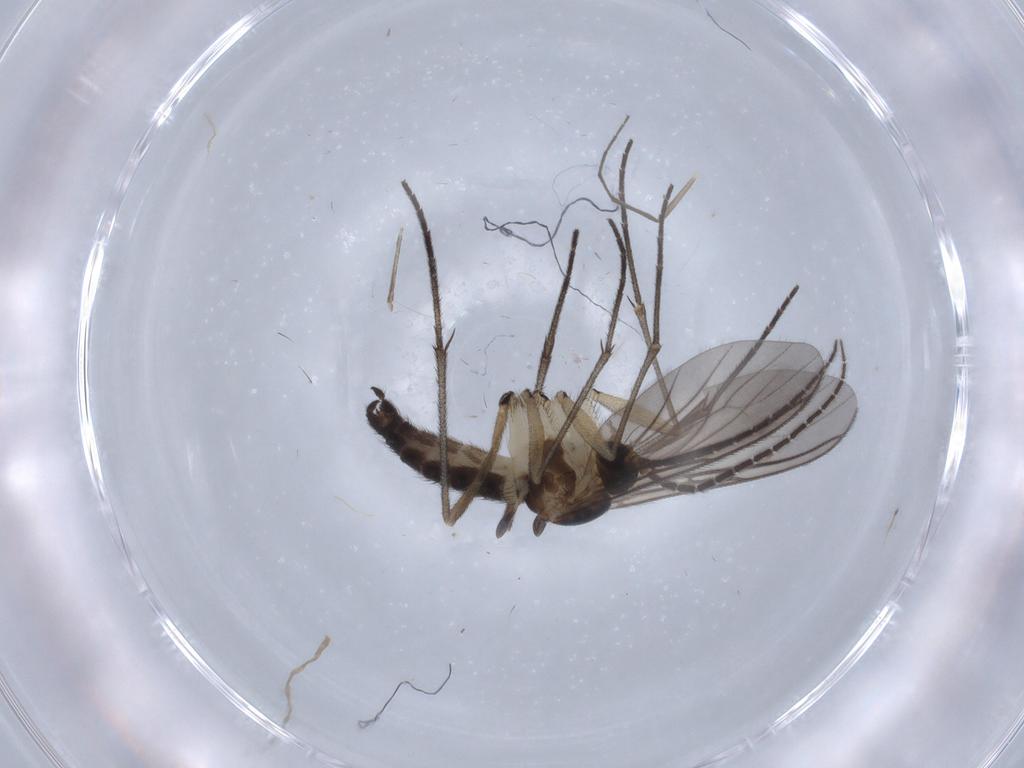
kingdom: Animalia
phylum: Arthropoda
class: Insecta
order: Diptera
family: Sciaridae
